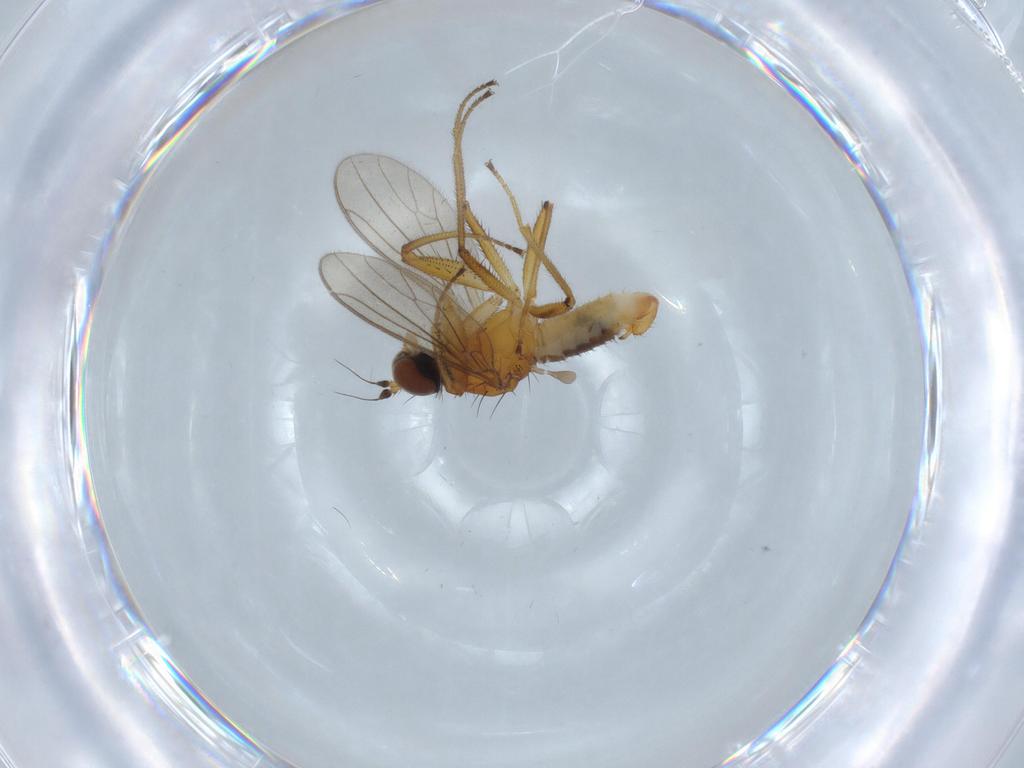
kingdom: Animalia
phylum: Arthropoda
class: Insecta
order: Diptera
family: Empididae
